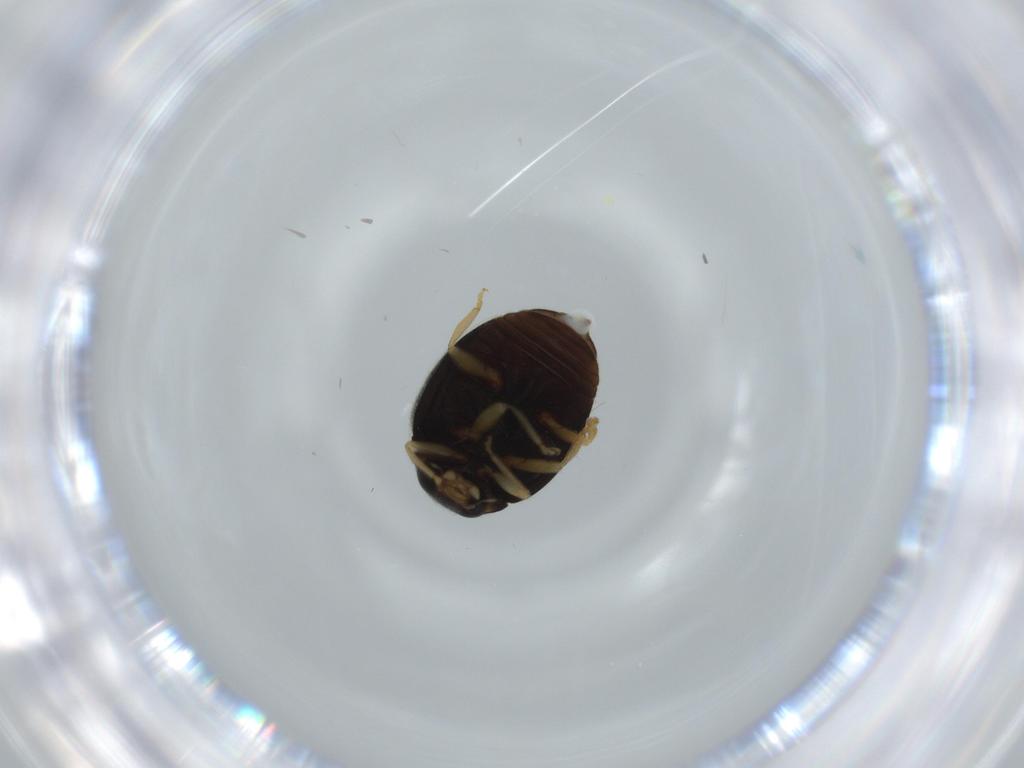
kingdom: Animalia
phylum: Arthropoda
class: Insecta
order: Coleoptera
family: Coccinellidae
